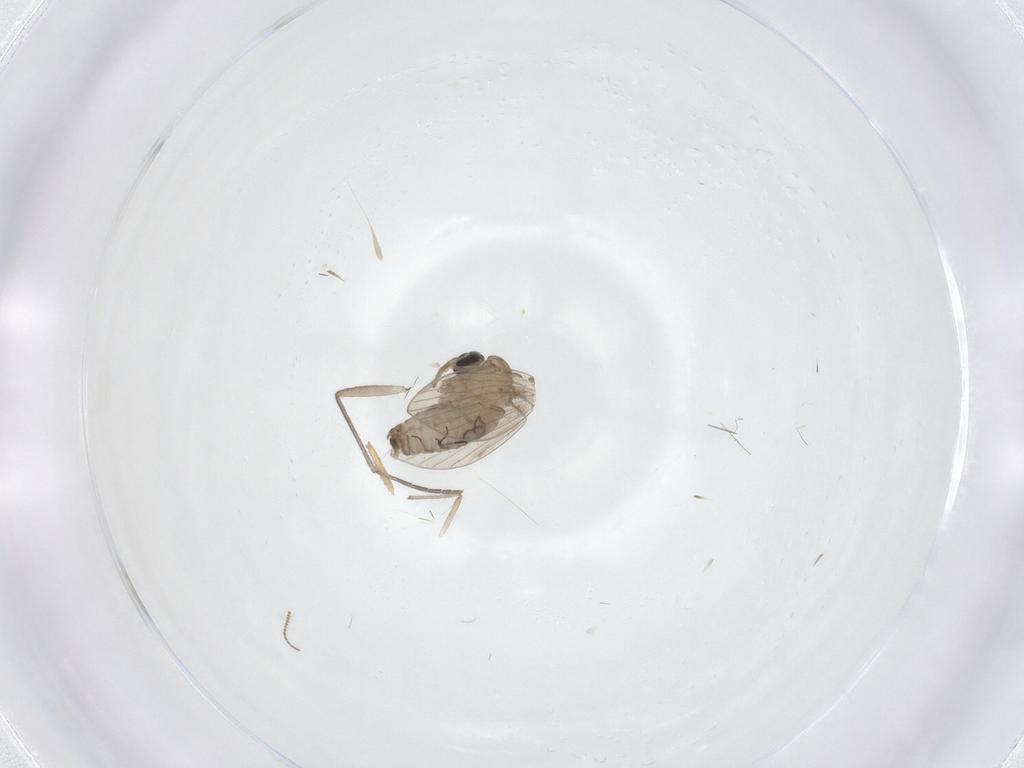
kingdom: Animalia
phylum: Arthropoda
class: Insecta
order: Diptera
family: Psychodidae
